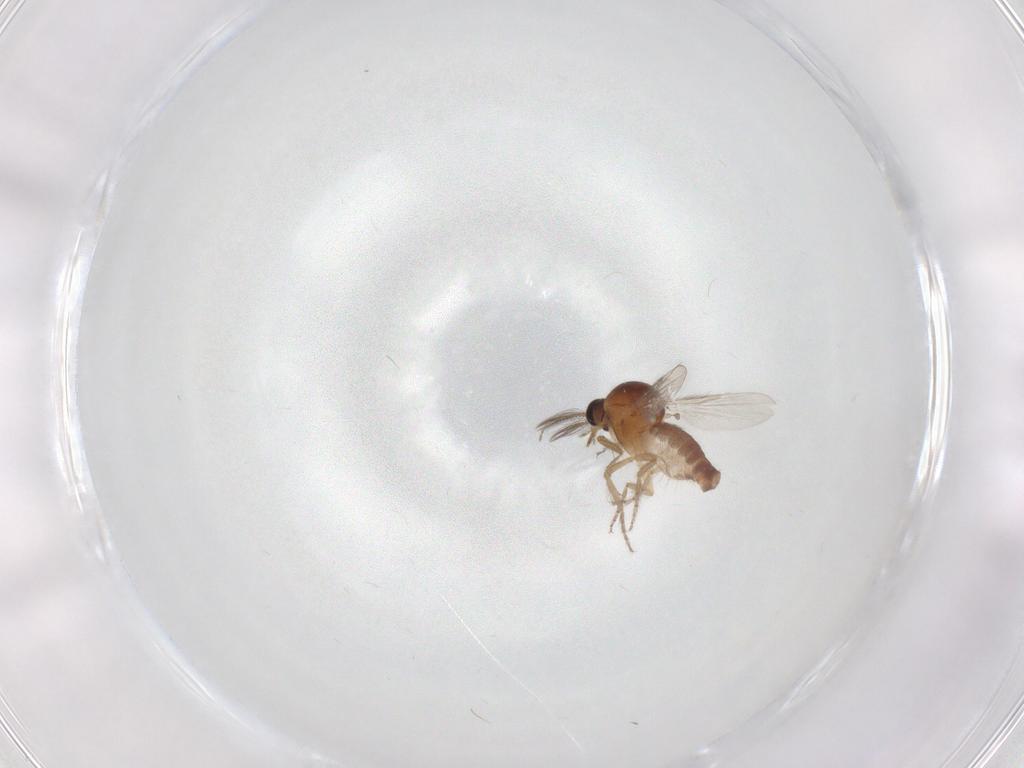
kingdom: Animalia
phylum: Arthropoda
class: Insecta
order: Diptera
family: Ceratopogonidae
